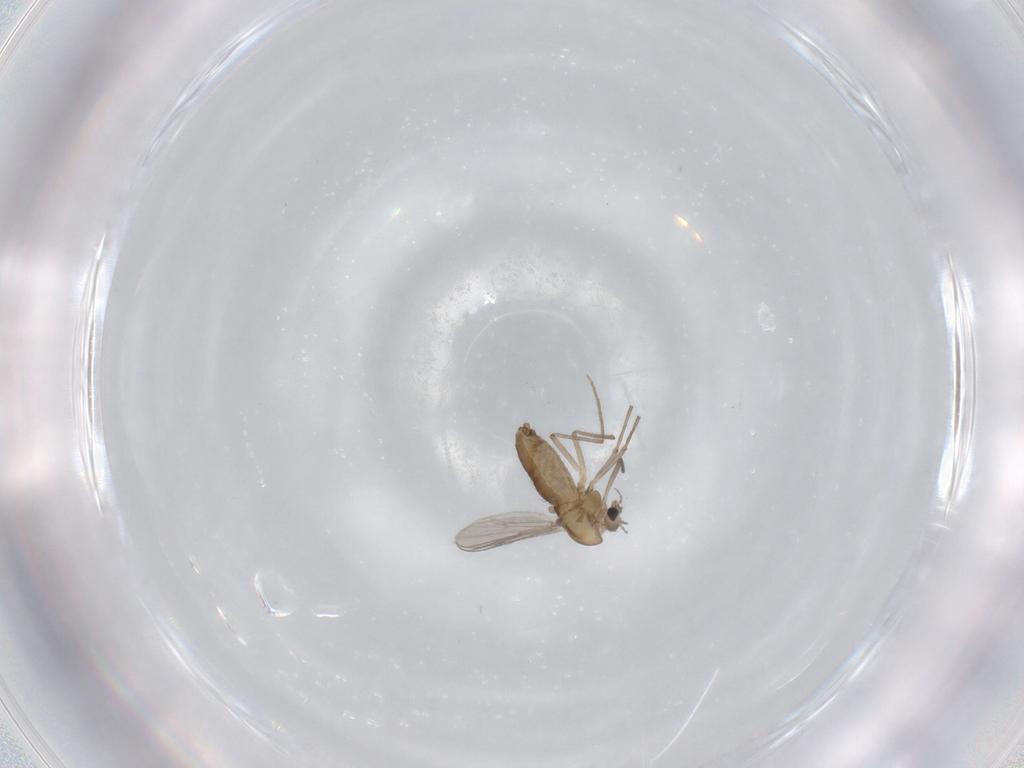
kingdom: Animalia
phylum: Arthropoda
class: Insecta
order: Diptera
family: Chironomidae
